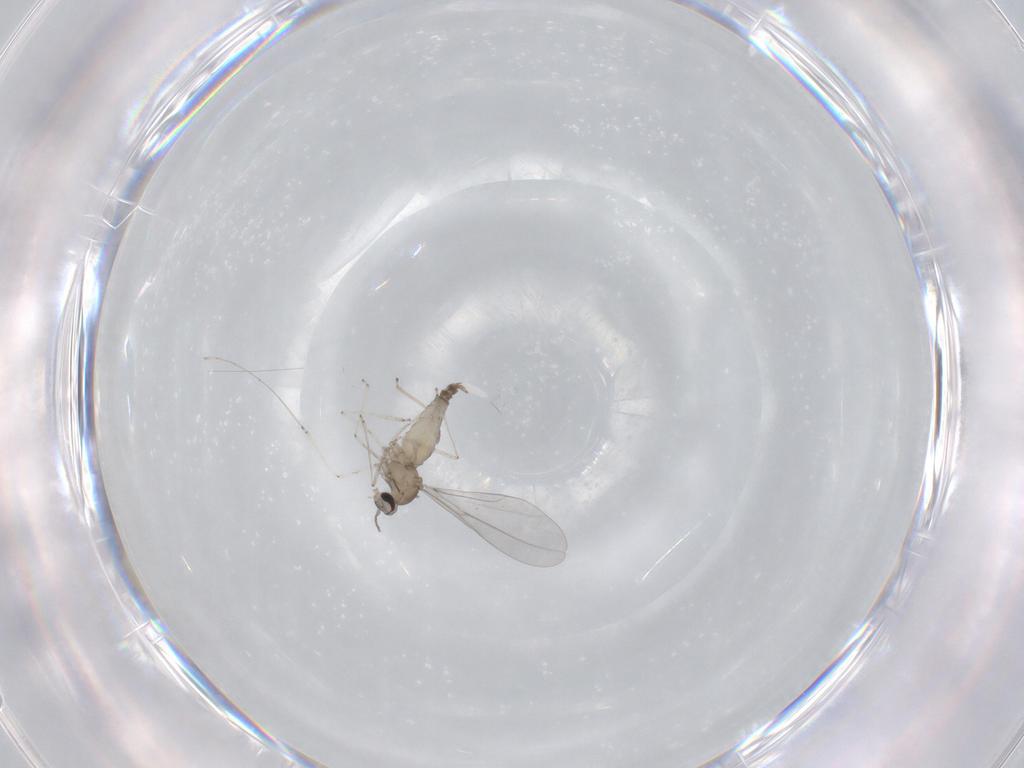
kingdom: Animalia
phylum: Arthropoda
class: Insecta
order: Diptera
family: Cecidomyiidae
